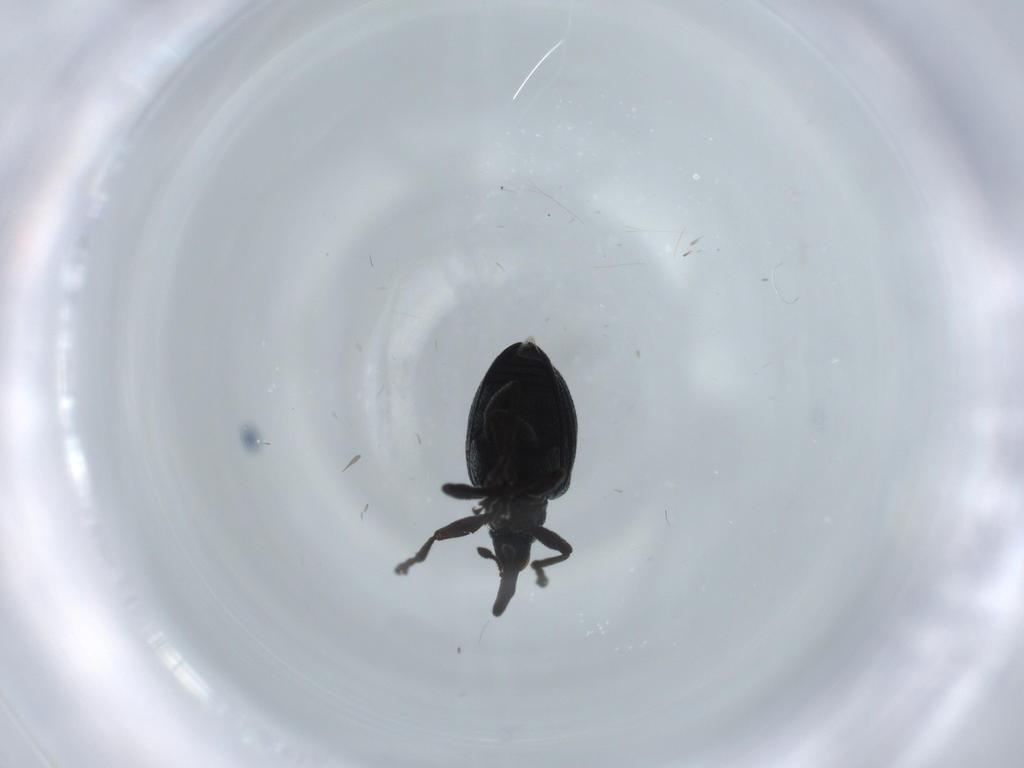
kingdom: Animalia
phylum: Arthropoda
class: Insecta
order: Coleoptera
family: Brentidae
